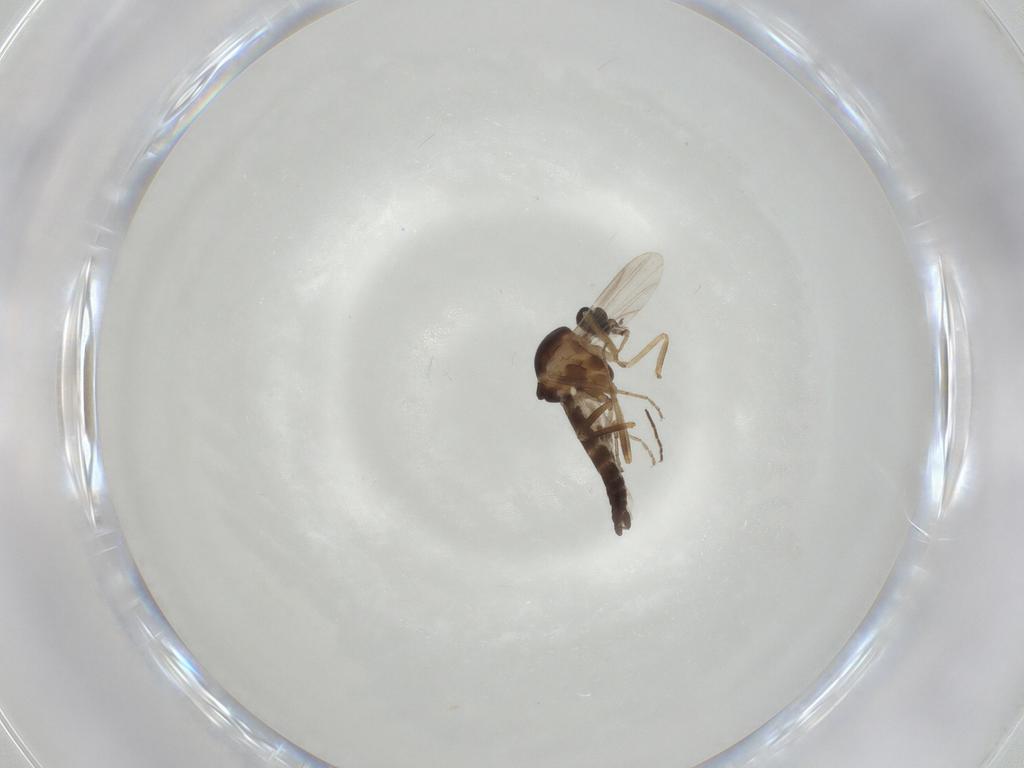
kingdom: Animalia
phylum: Arthropoda
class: Insecta
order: Diptera
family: Ceratopogonidae
